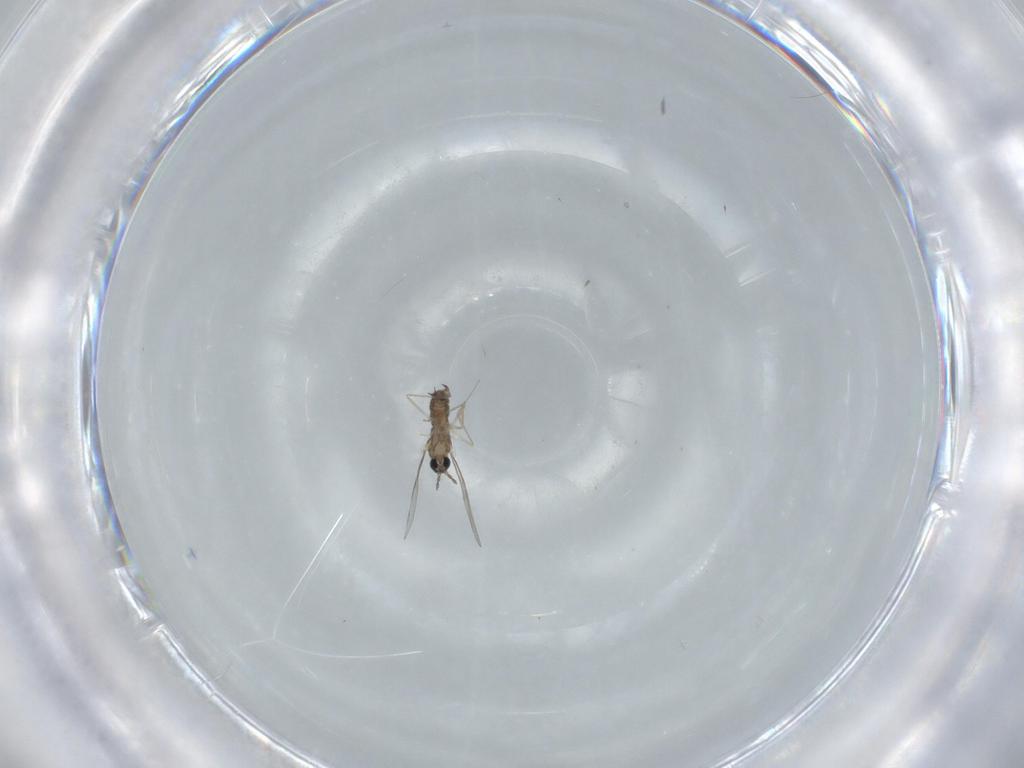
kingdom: Animalia
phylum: Arthropoda
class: Insecta
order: Diptera
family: Therevidae
